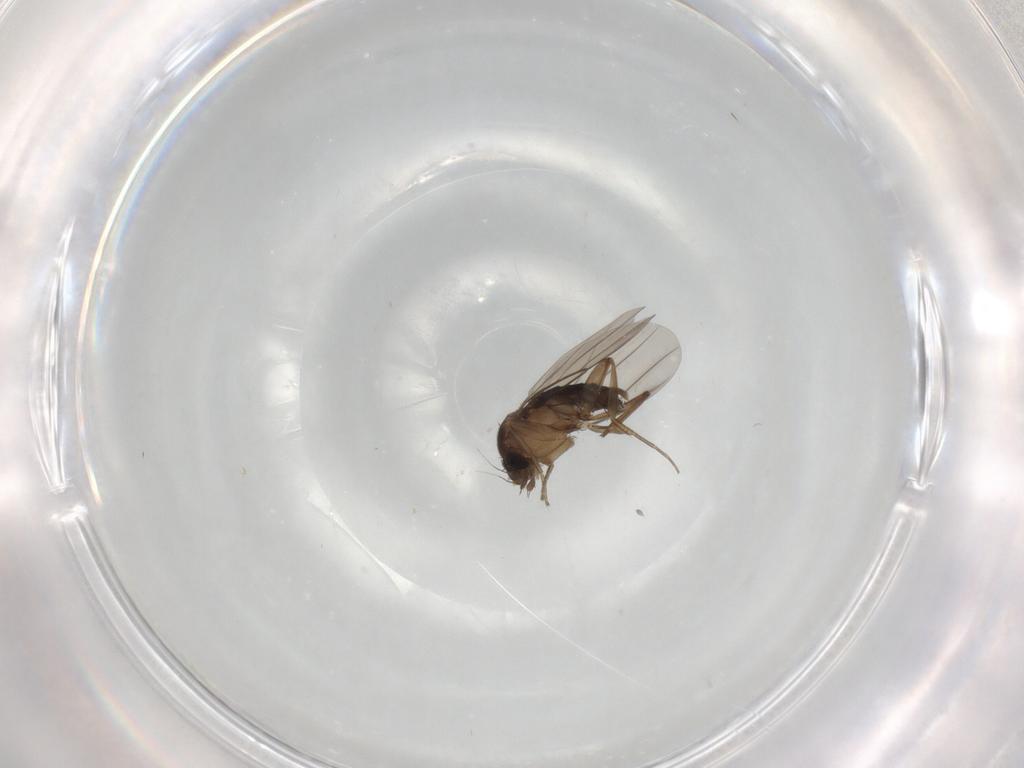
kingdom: Animalia
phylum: Arthropoda
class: Insecta
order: Diptera
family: Phoridae
